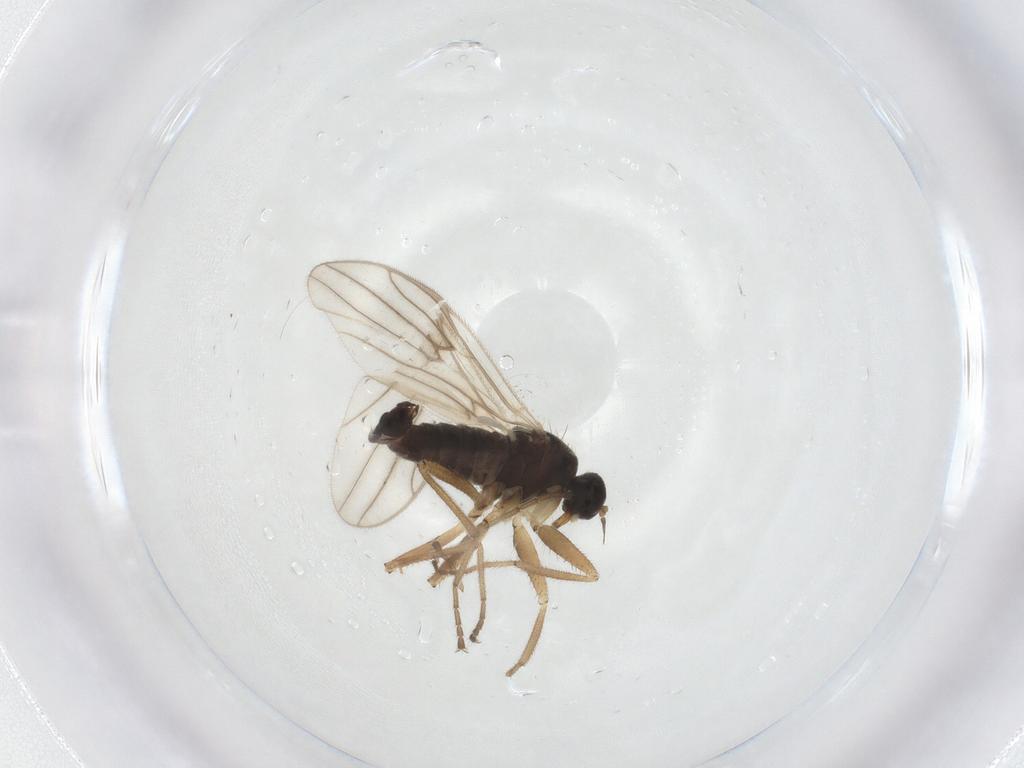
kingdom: Animalia
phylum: Arthropoda
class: Insecta
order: Diptera
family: Hybotidae
